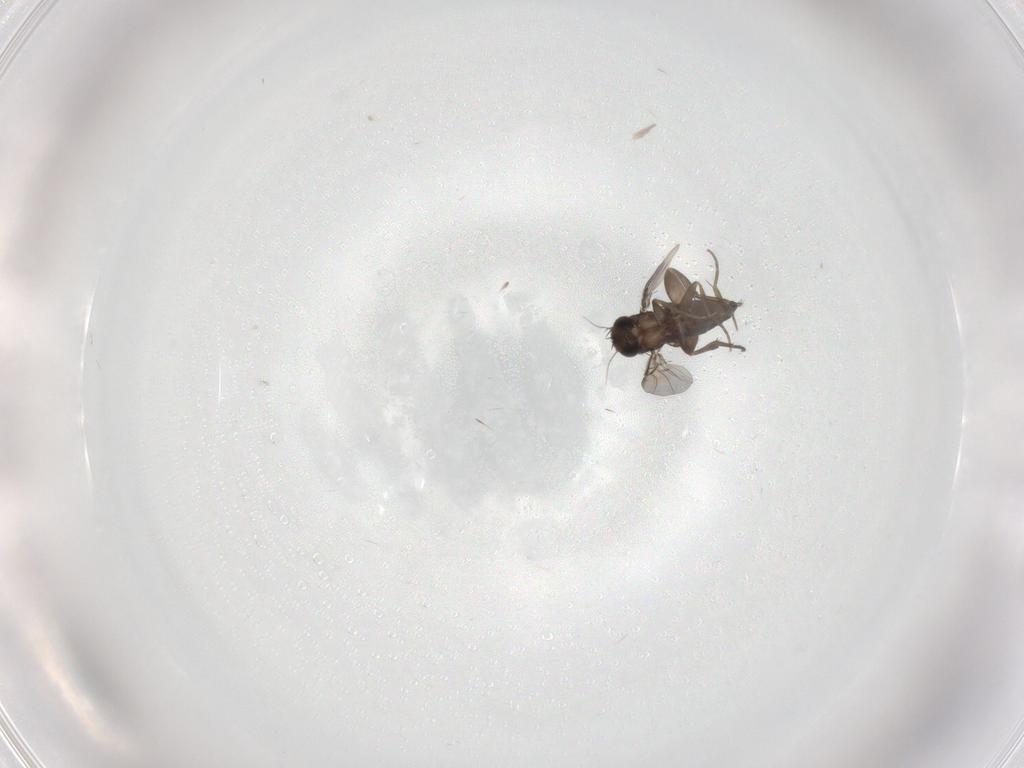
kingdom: Animalia
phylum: Arthropoda
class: Insecta
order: Diptera
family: Phoridae
